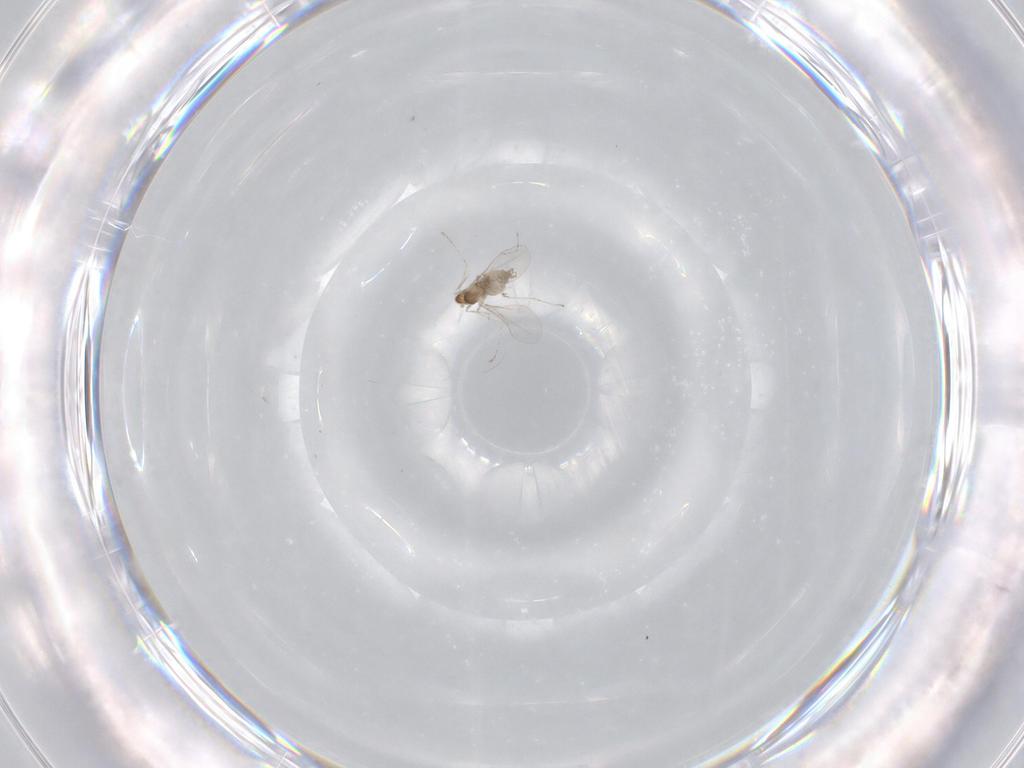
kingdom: Animalia
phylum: Arthropoda
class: Insecta
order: Diptera
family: Cecidomyiidae
